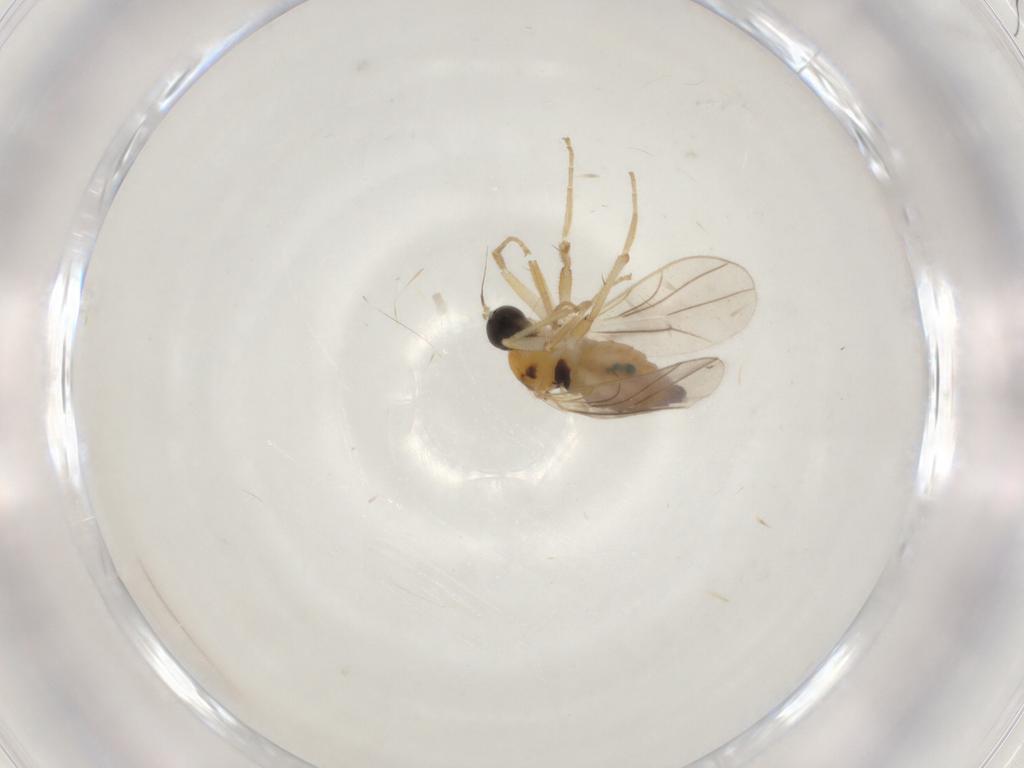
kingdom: Animalia
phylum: Arthropoda
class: Insecta
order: Diptera
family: Hybotidae
